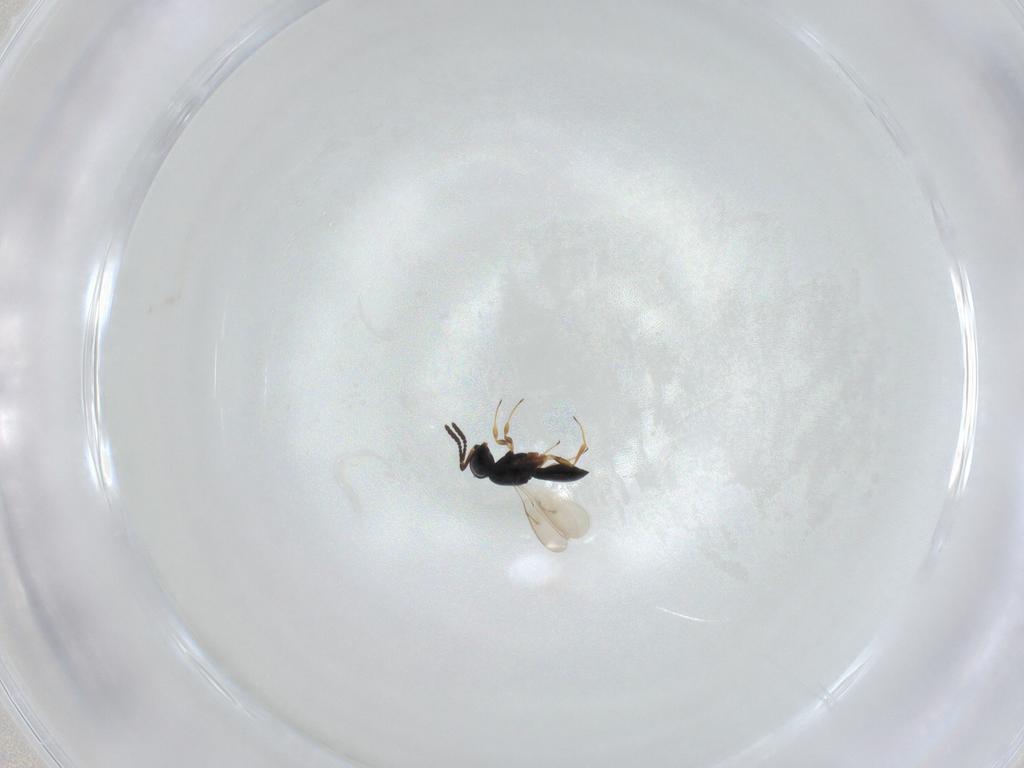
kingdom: Animalia
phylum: Arthropoda
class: Insecta
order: Hymenoptera
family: Scelionidae
